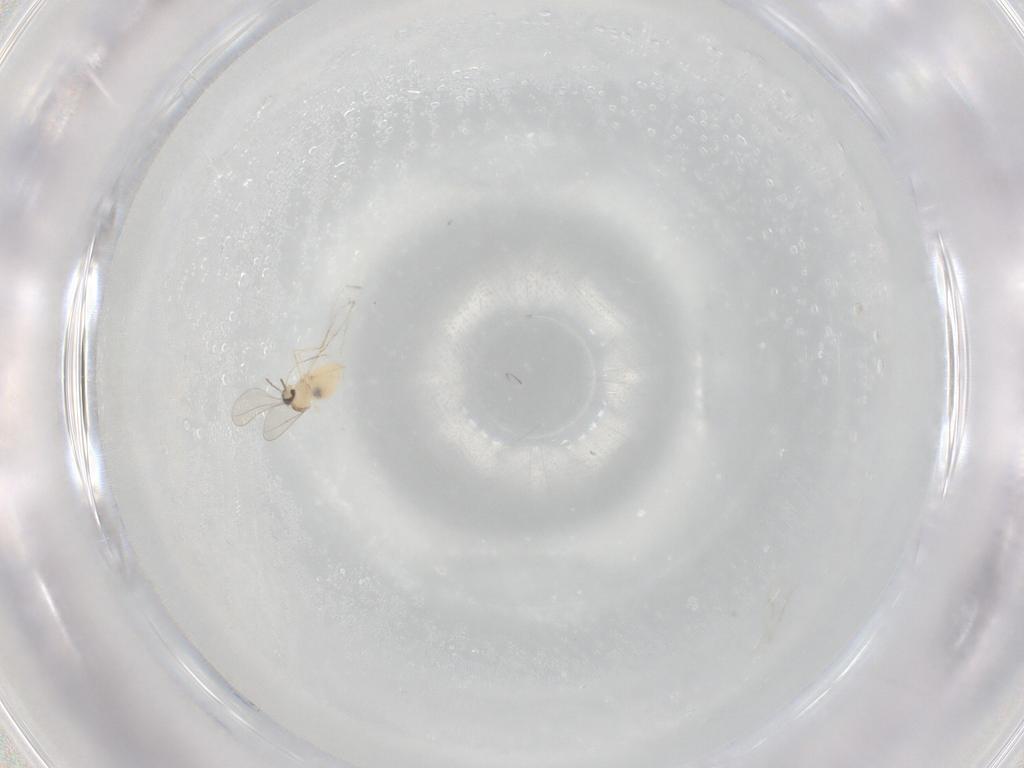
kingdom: Animalia
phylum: Arthropoda
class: Insecta
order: Diptera
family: Cecidomyiidae
